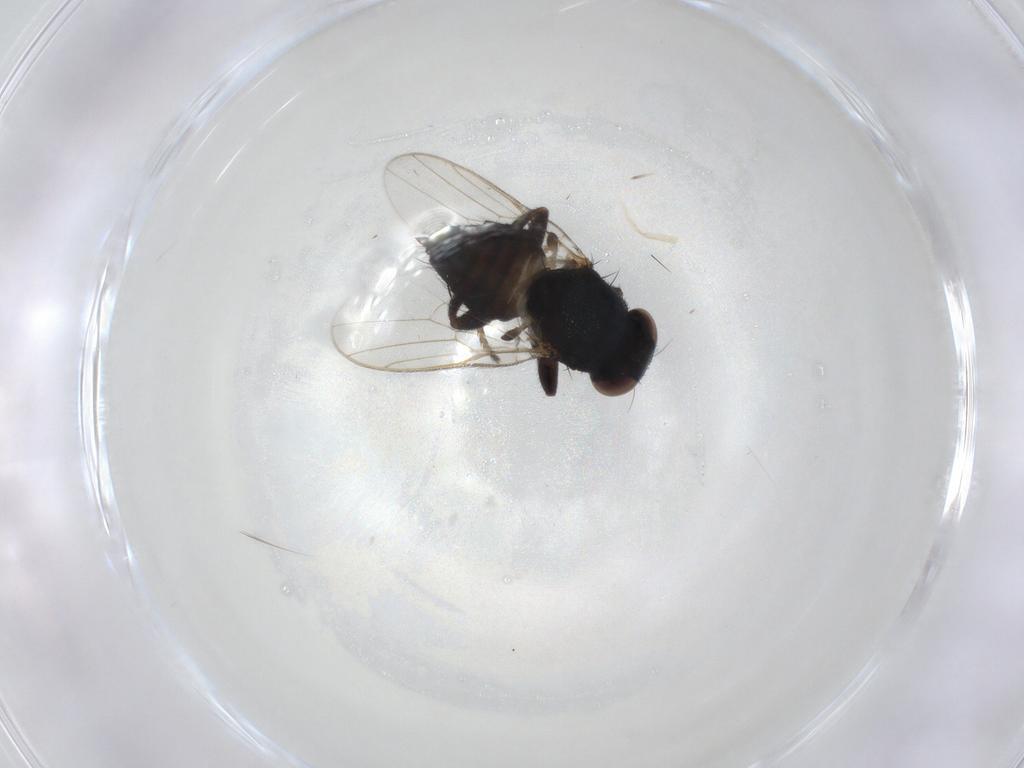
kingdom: Animalia
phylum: Arthropoda
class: Insecta
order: Diptera
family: Chloropidae
